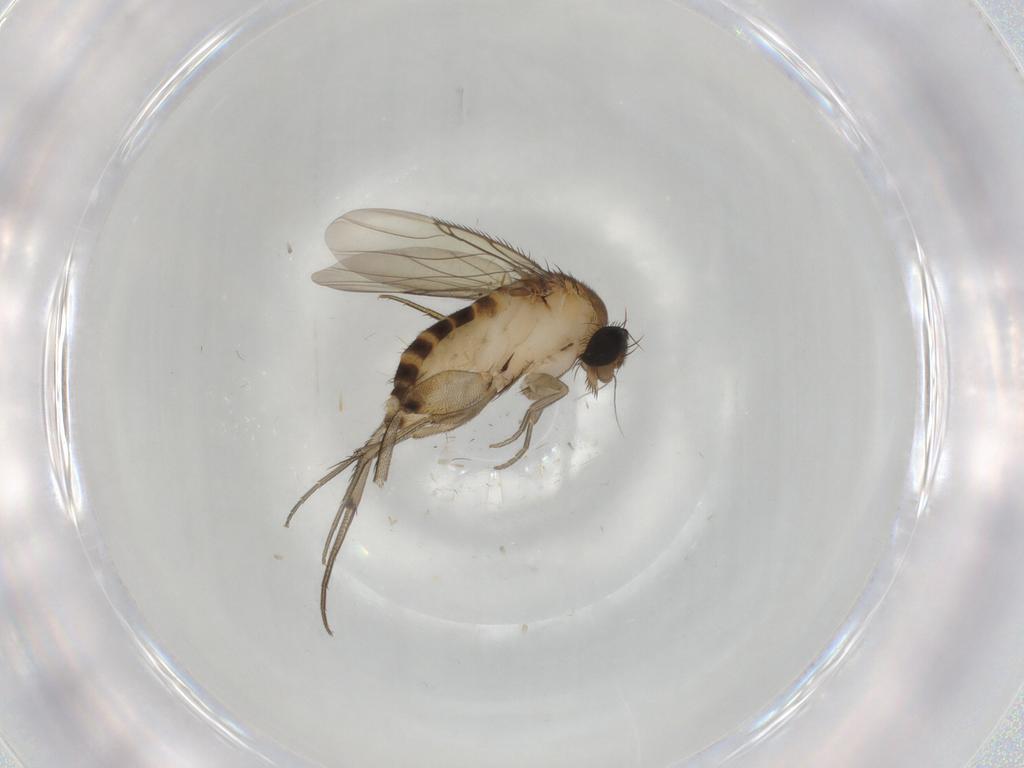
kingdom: Animalia
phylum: Arthropoda
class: Insecta
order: Diptera
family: Phoridae
